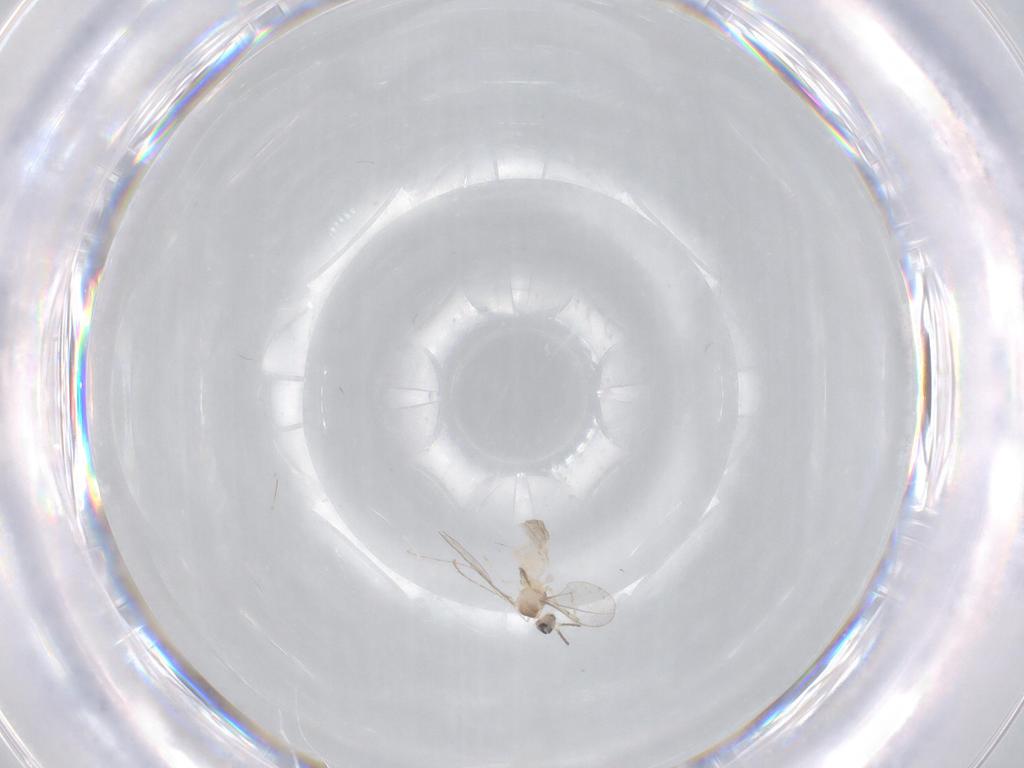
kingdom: Animalia
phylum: Arthropoda
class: Insecta
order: Diptera
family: Cecidomyiidae
